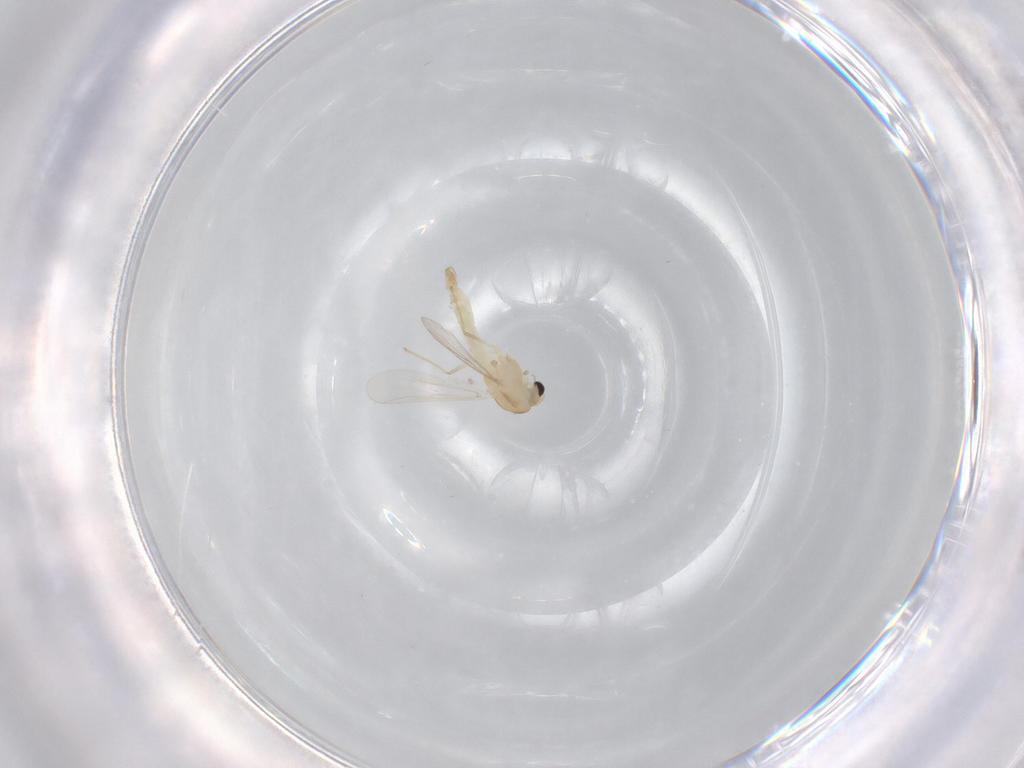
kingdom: Animalia
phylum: Arthropoda
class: Insecta
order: Diptera
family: Chironomidae
